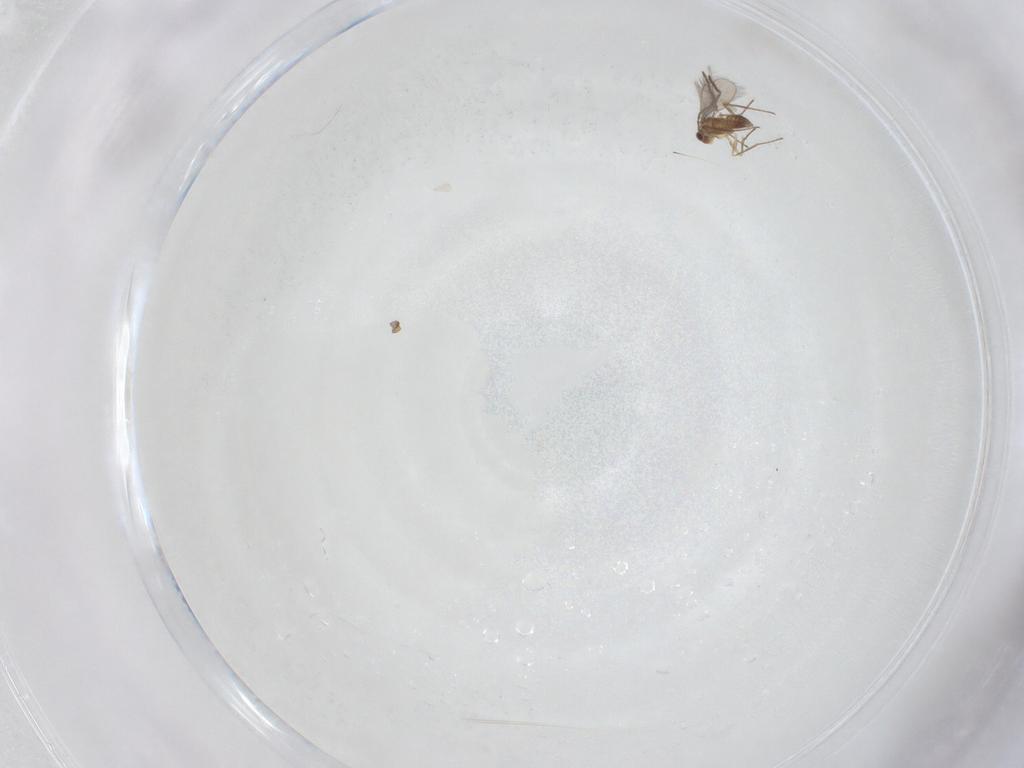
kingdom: Animalia
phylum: Arthropoda
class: Insecta
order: Hymenoptera
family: Mymaridae
